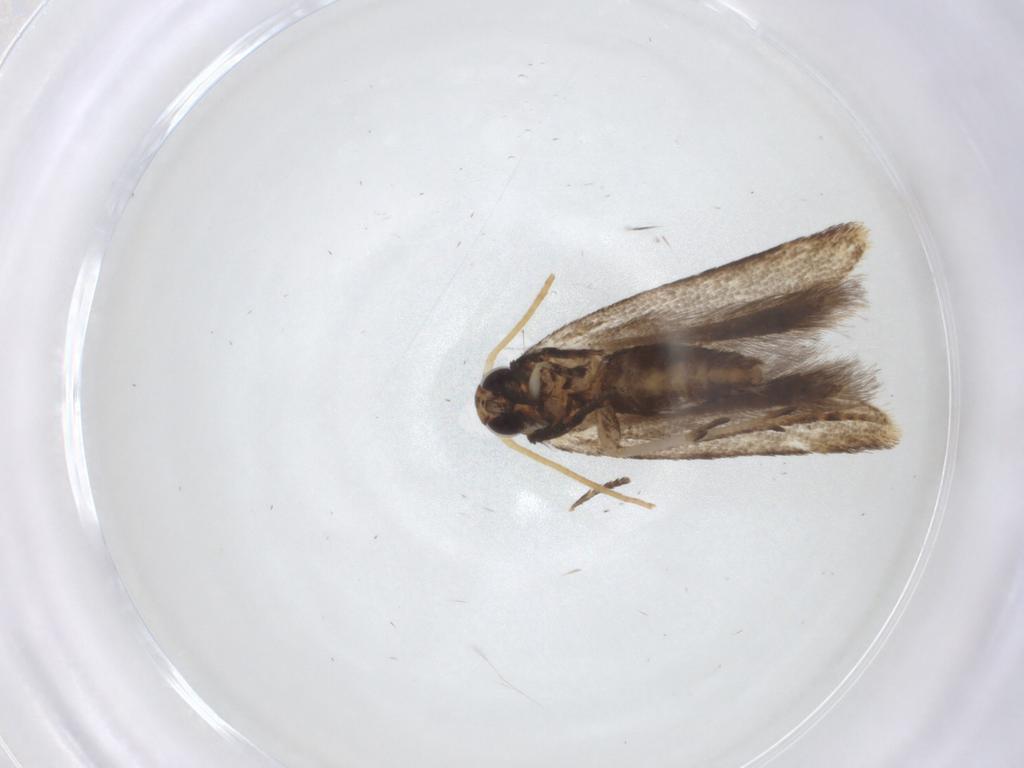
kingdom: Animalia
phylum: Arthropoda
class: Insecta
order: Lepidoptera
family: Gelechiidae
